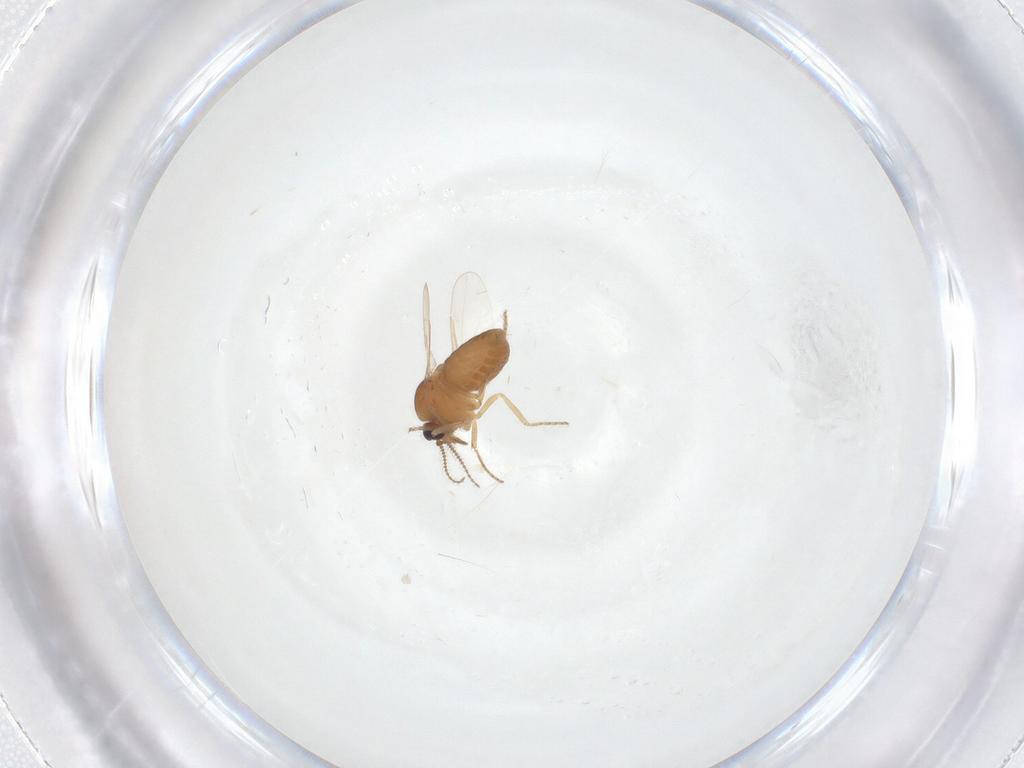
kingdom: Animalia
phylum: Arthropoda
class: Insecta
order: Diptera
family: Ceratopogonidae
